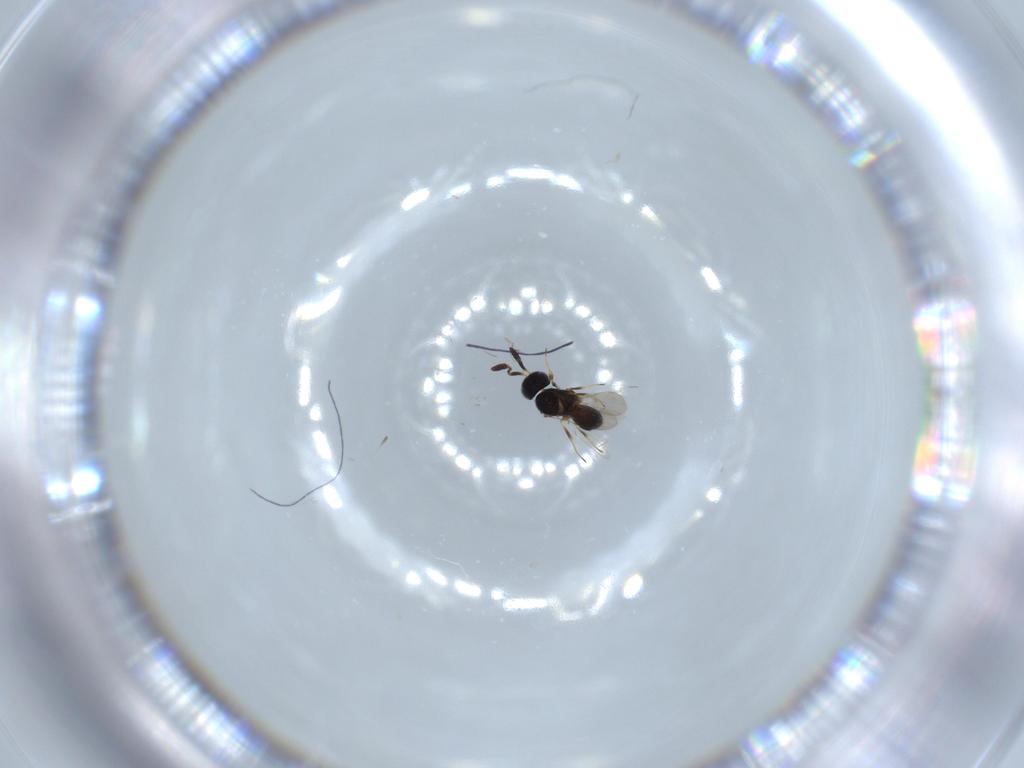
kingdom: Animalia
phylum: Arthropoda
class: Insecta
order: Hymenoptera
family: Scelionidae
